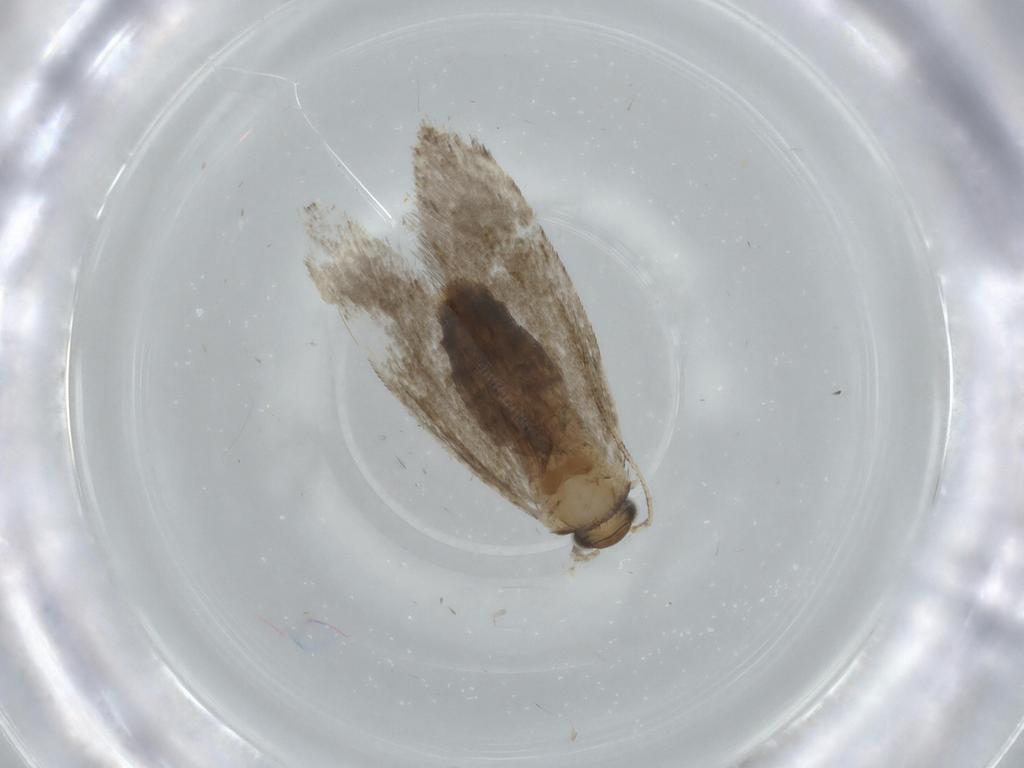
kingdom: Animalia
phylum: Arthropoda
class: Insecta
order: Lepidoptera
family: Tineidae
